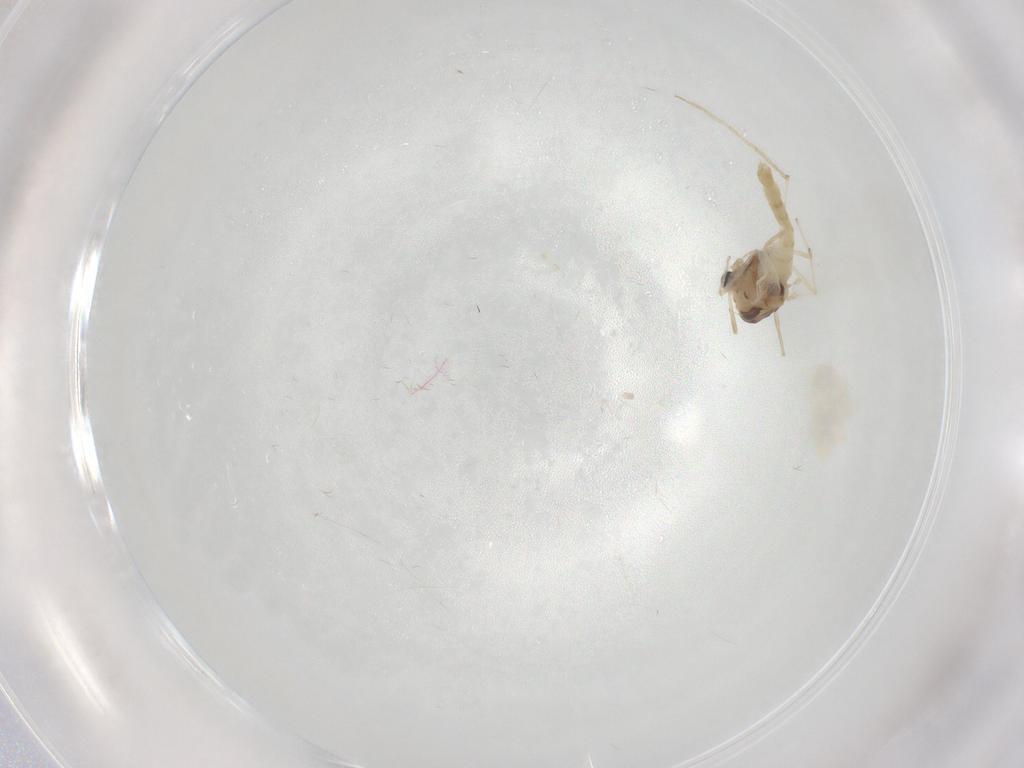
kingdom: Animalia
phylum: Arthropoda
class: Insecta
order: Diptera
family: Chironomidae
